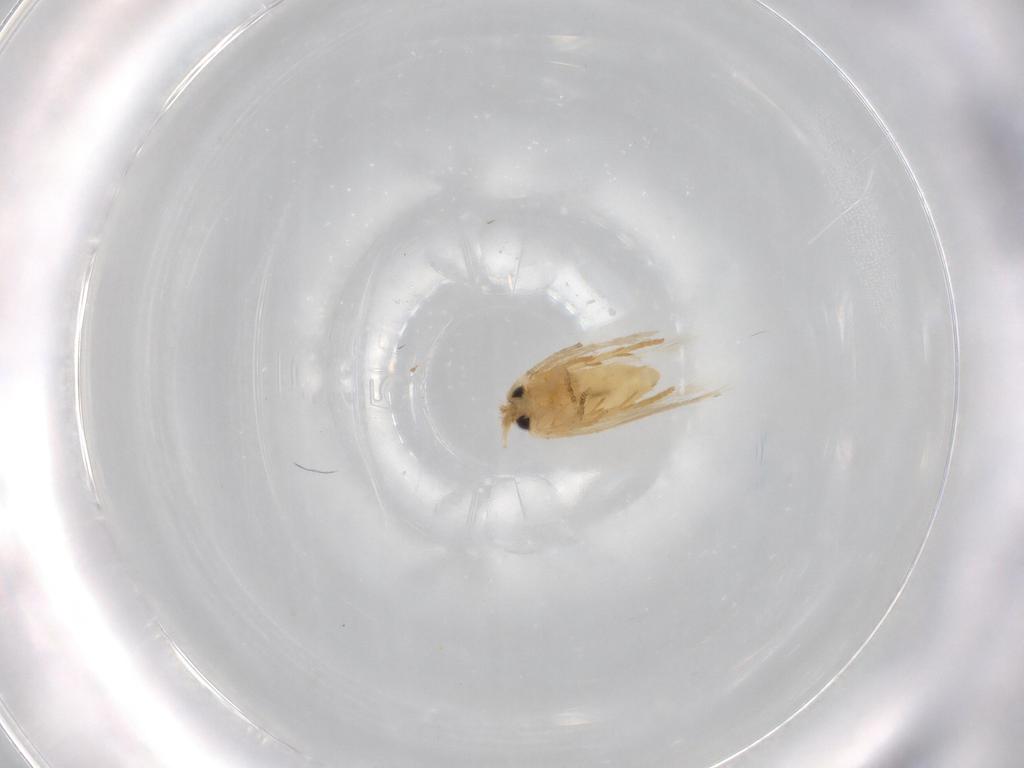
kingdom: Animalia
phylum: Arthropoda
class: Insecta
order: Lepidoptera
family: Nepticulidae
